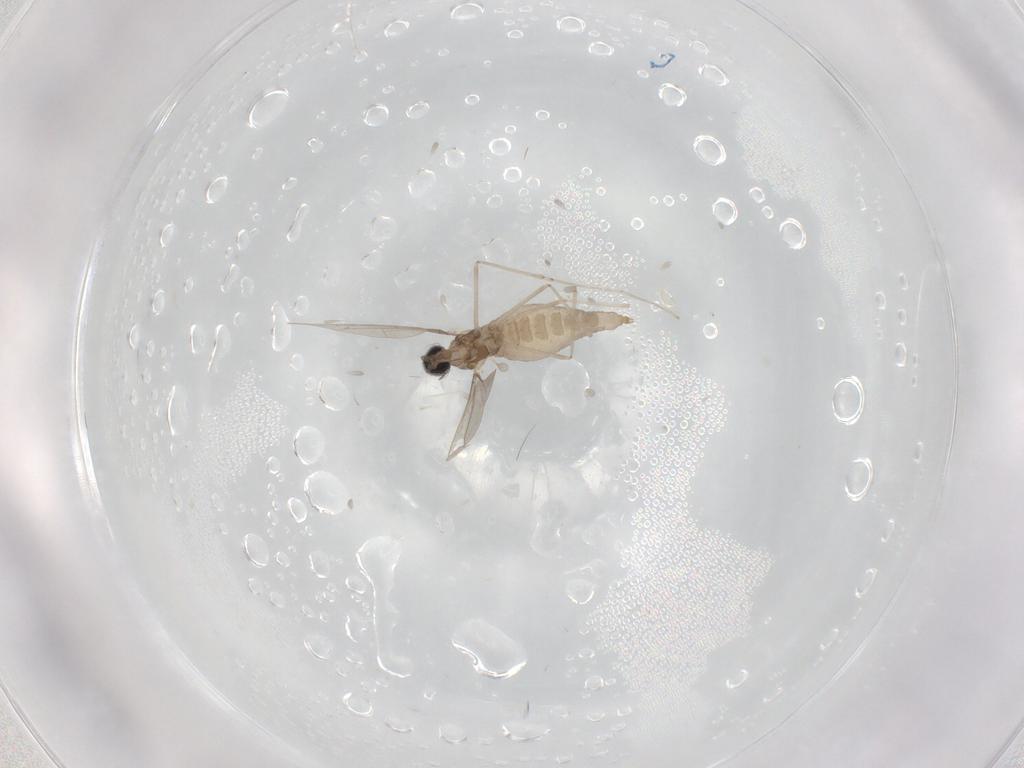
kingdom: Animalia
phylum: Arthropoda
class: Insecta
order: Diptera
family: Cecidomyiidae
